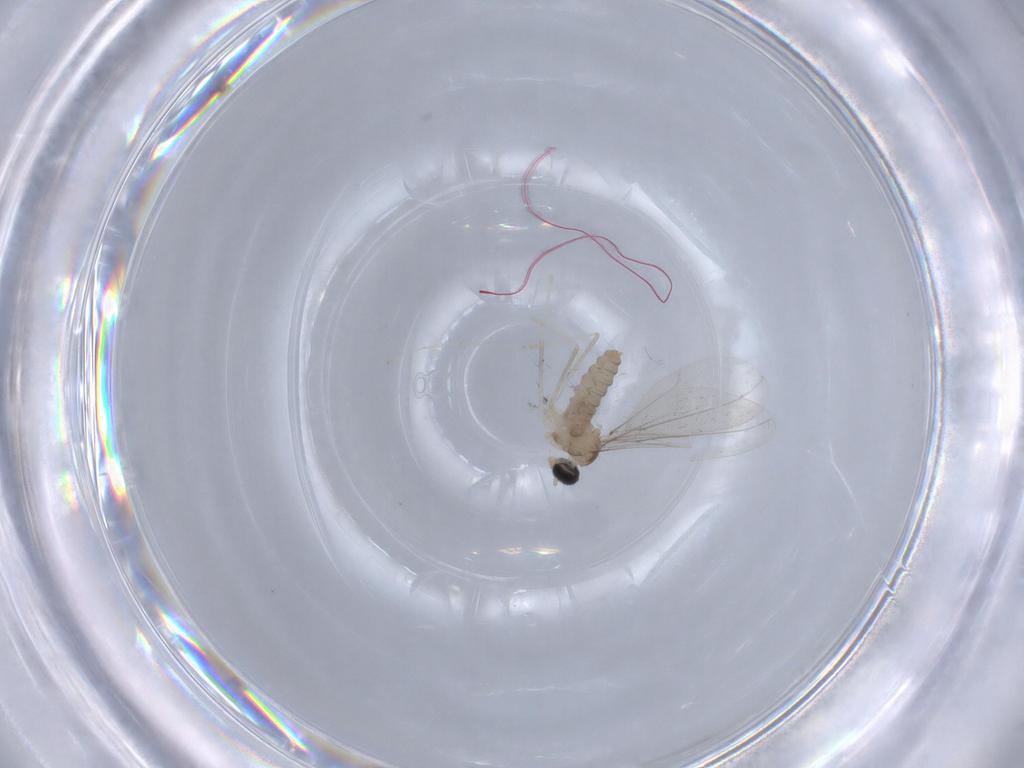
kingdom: Animalia
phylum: Arthropoda
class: Insecta
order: Diptera
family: Cecidomyiidae
